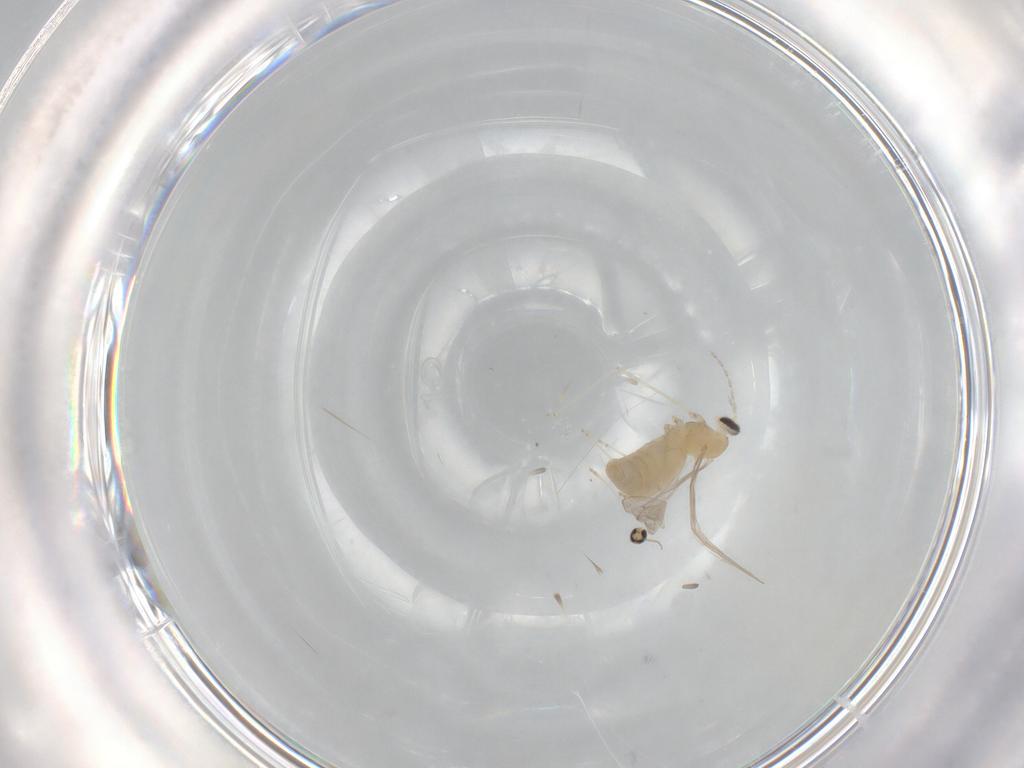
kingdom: Animalia
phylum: Arthropoda
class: Insecta
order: Diptera
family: Cecidomyiidae
